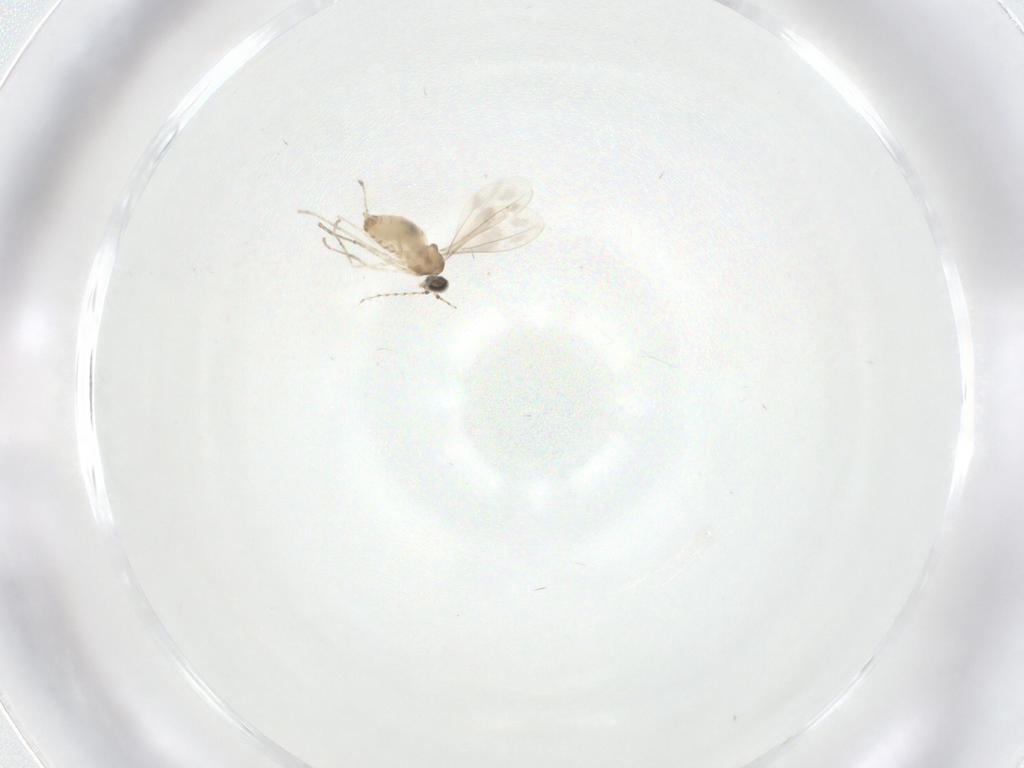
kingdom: Animalia
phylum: Arthropoda
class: Insecta
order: Diptera
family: Cecidomyiidae
